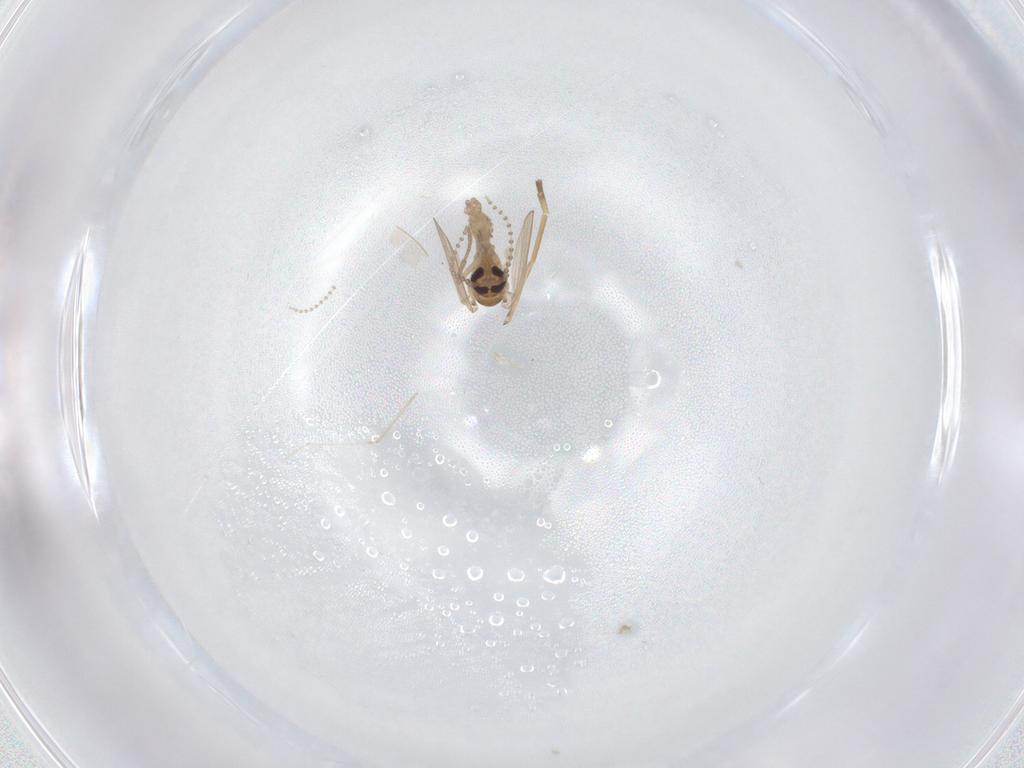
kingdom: Animalia
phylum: Arthropoda
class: Insecta
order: Diptera
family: Psychodidae
